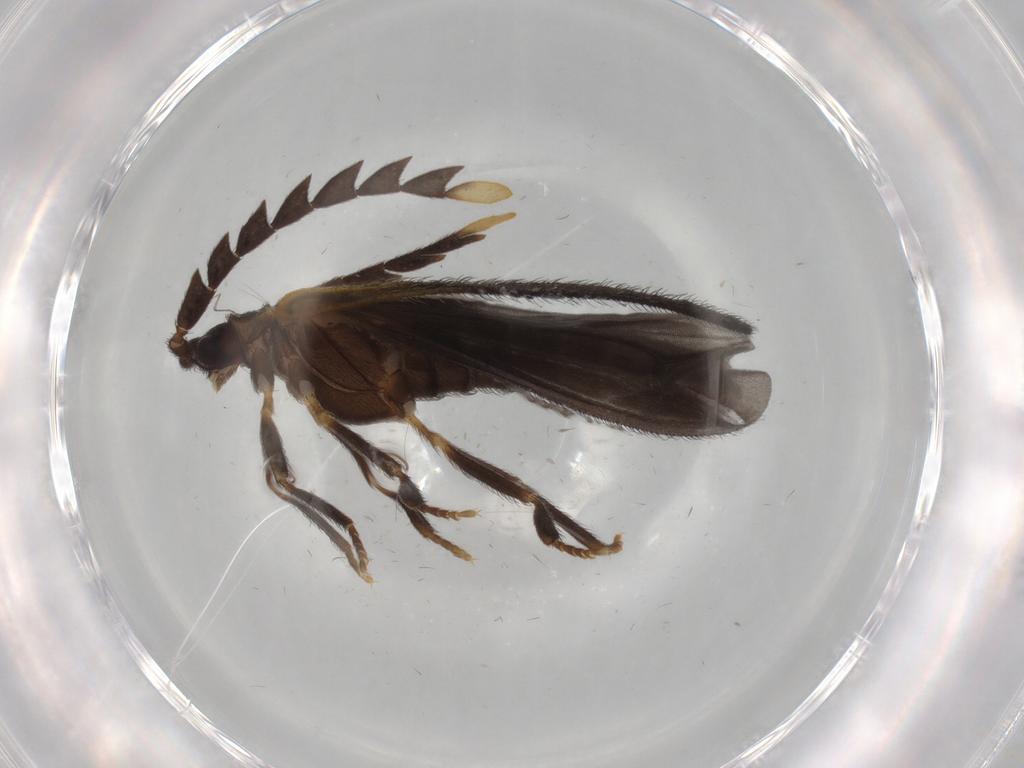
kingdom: Animalia
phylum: Arthropoda
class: Insecta
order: Coleoptera
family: Lycidae
